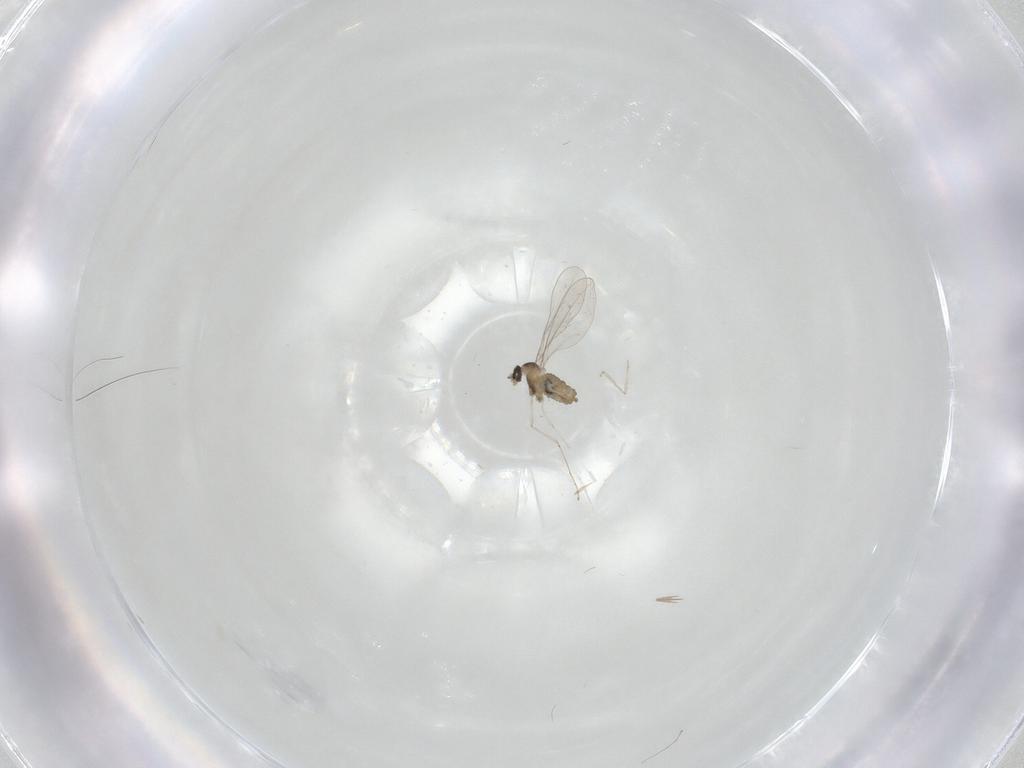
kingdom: Animalia
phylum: Arthropoda
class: Insecta
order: Diptera
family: Cecidomyiidae
